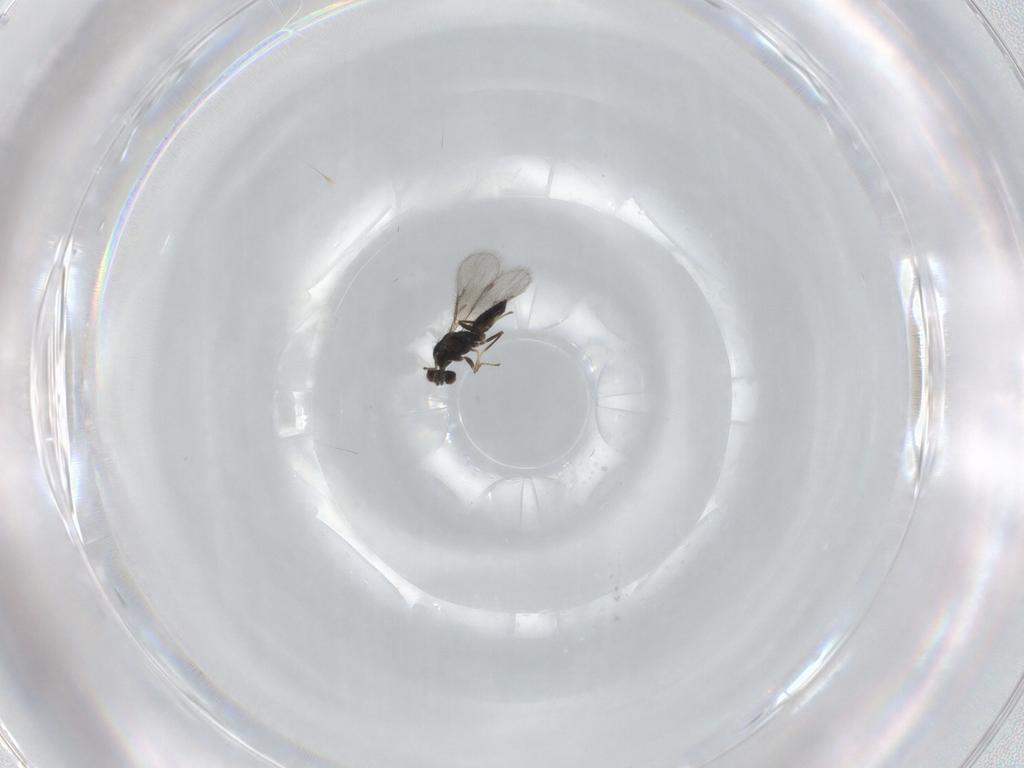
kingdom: Animalia
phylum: Arthropoda
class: Insecta
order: Hymenoptera
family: Eulophidae
